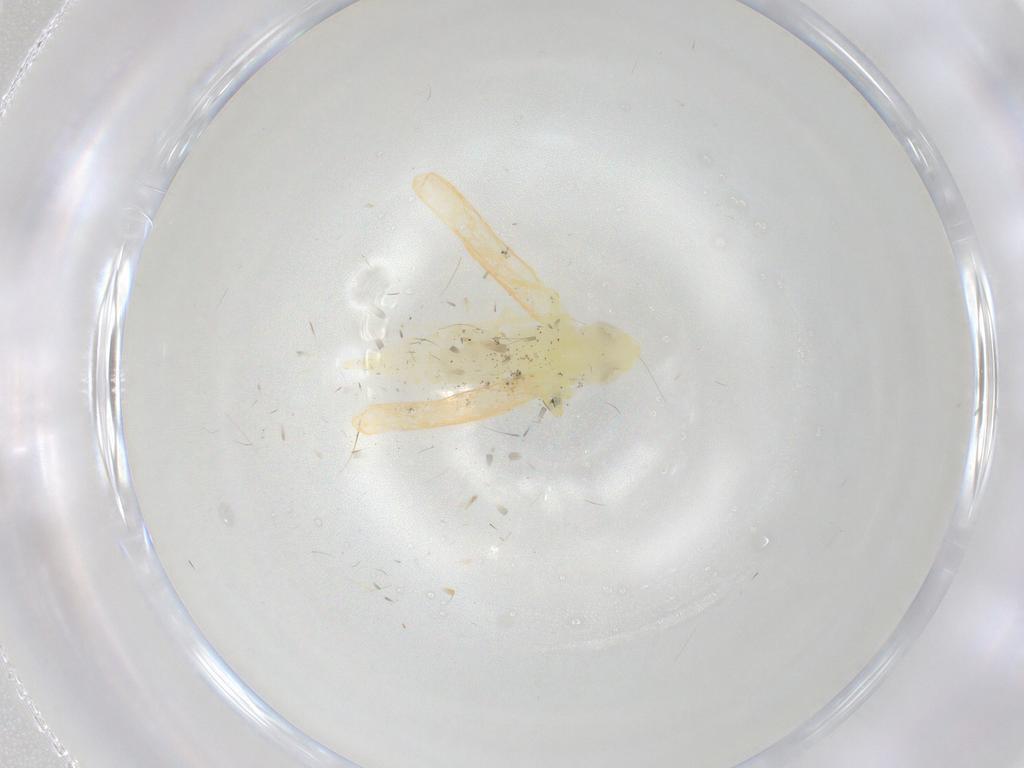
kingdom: Animalia
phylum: Arthropoda
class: Insecta
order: Hemiptera
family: Cicadellidae
